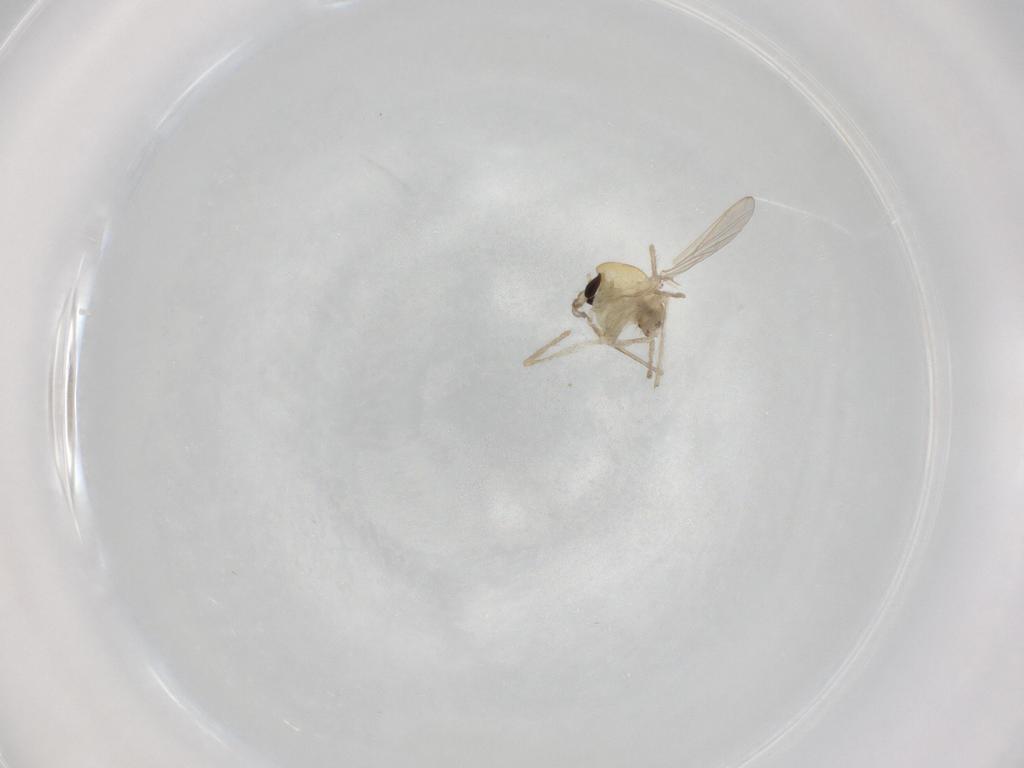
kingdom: Animalia
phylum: Arthropoda
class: Insecta
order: Diptera
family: Chironomidae
